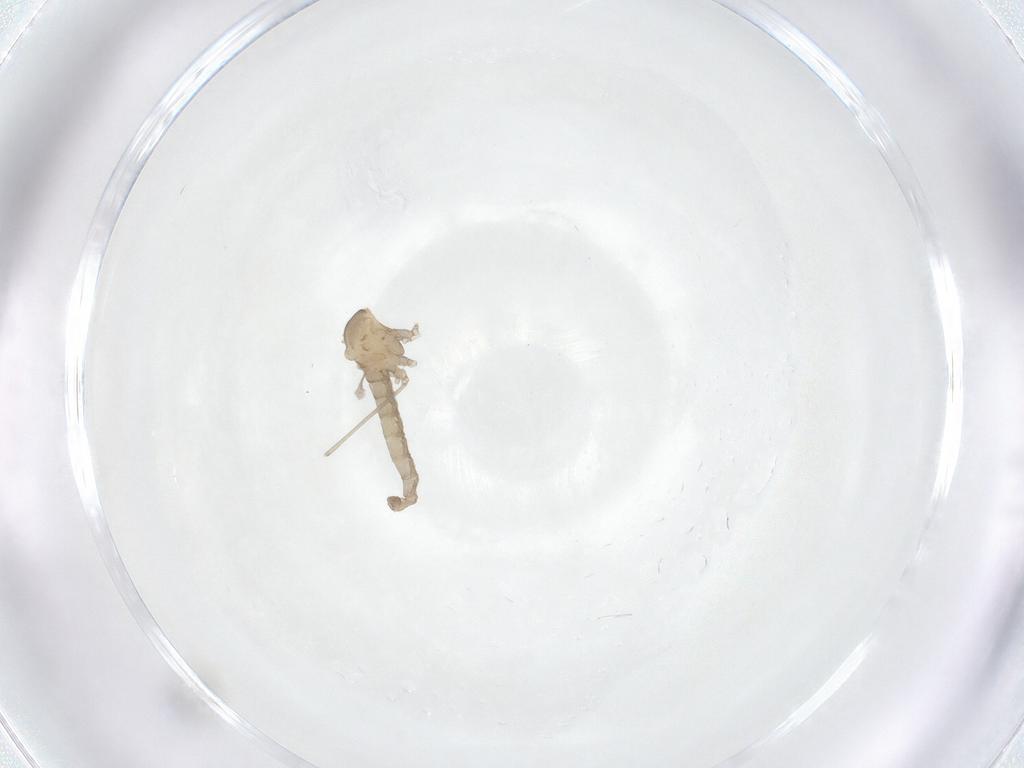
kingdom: Animalia
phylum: Arthropoda
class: Insecta
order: Diptera
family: Cecidomyiidae
